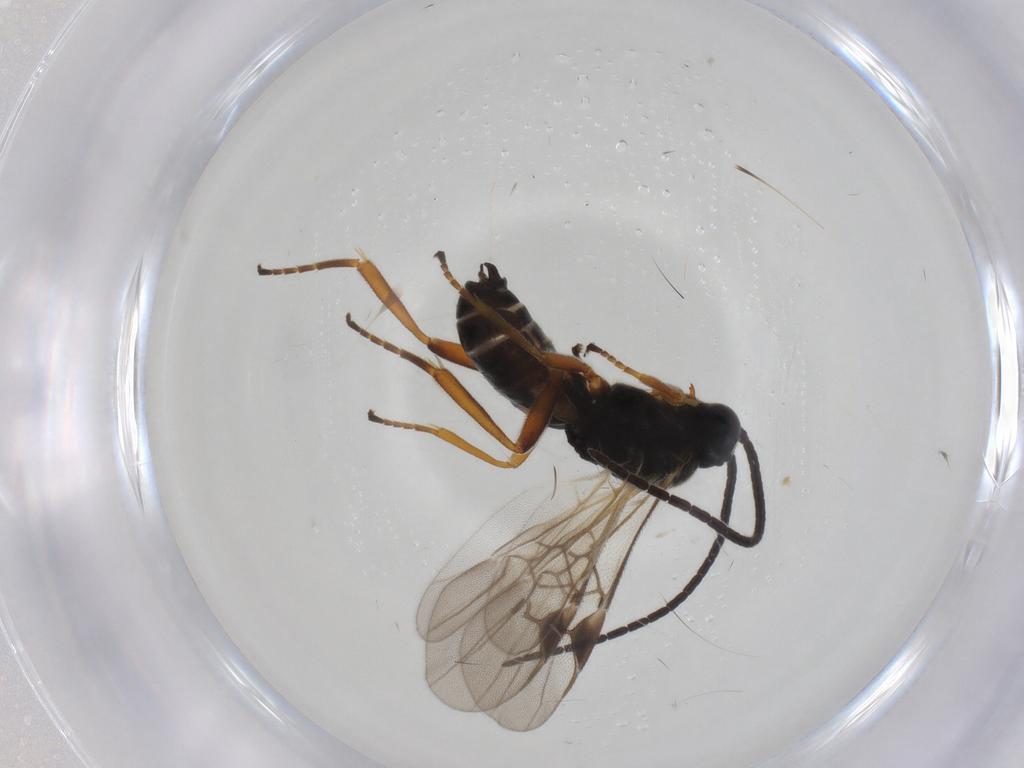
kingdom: Animalia
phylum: Arthropoda
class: Insecta
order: Hymenoptera
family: Braconidae
